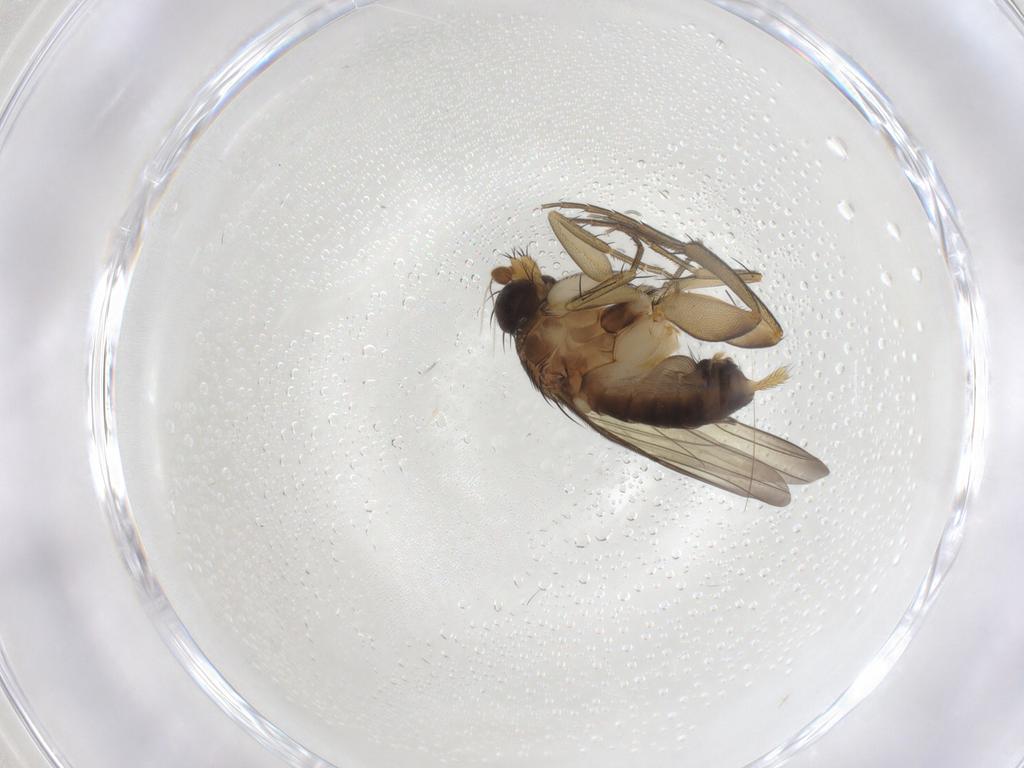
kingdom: Animalia
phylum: Arthropoda
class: Insecta
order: Diptera
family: Phoridae
